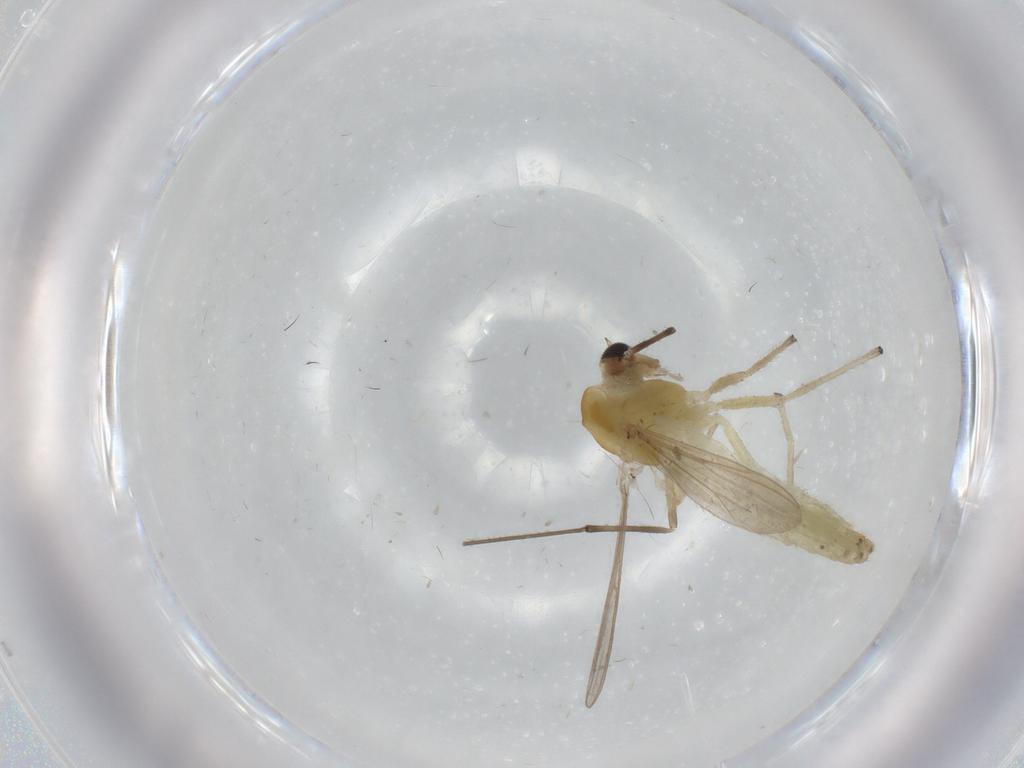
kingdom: Animalia
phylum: Arthropoda
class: Insecta
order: Diptera
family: Chironomidae
